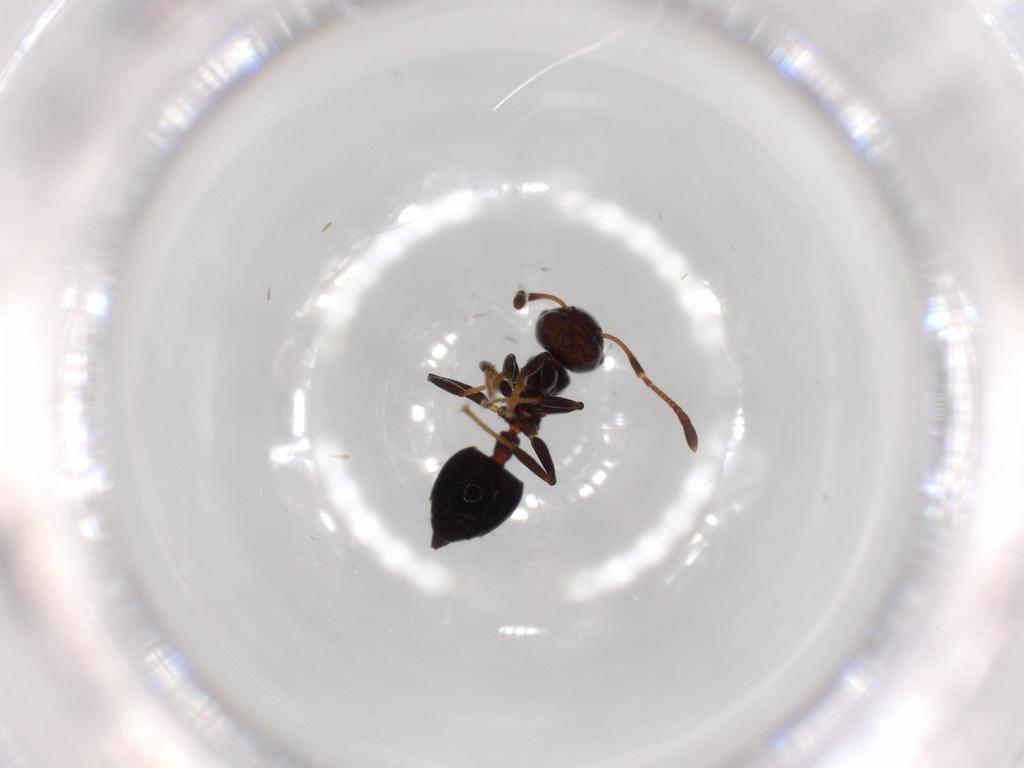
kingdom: Animalia
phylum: Arthropoda
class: Insecta
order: Hymenoptera
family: Formicidae
